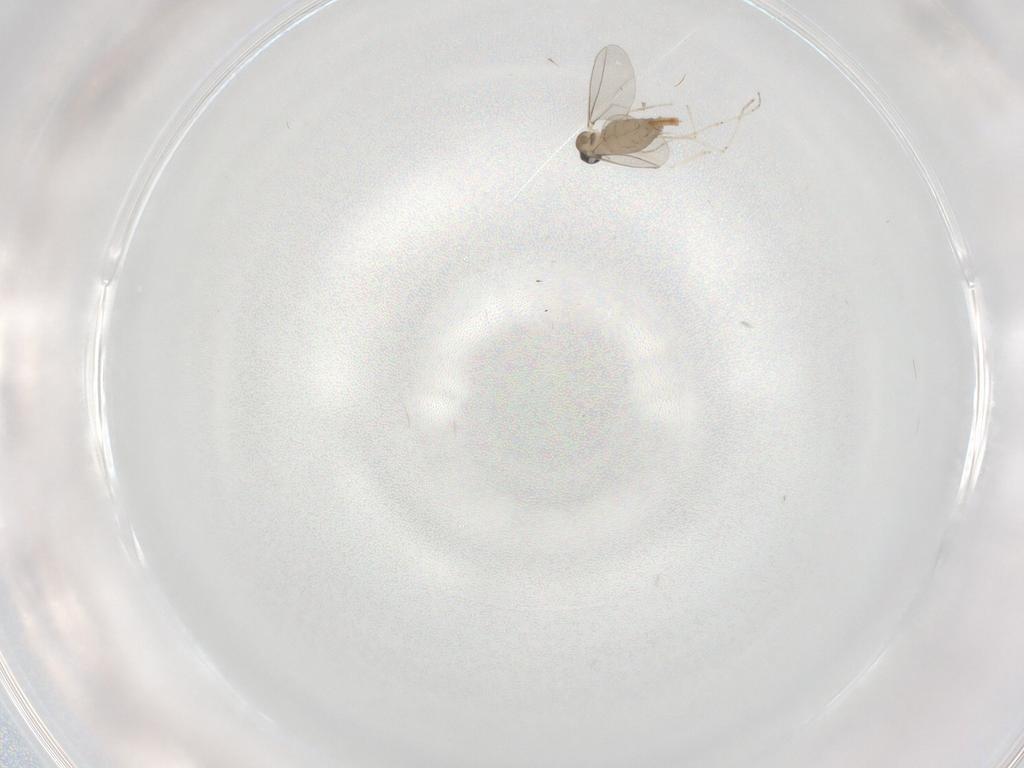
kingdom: Animalia
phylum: Arthropoda
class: Insecta
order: Diptera
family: Cecidomyiidae
